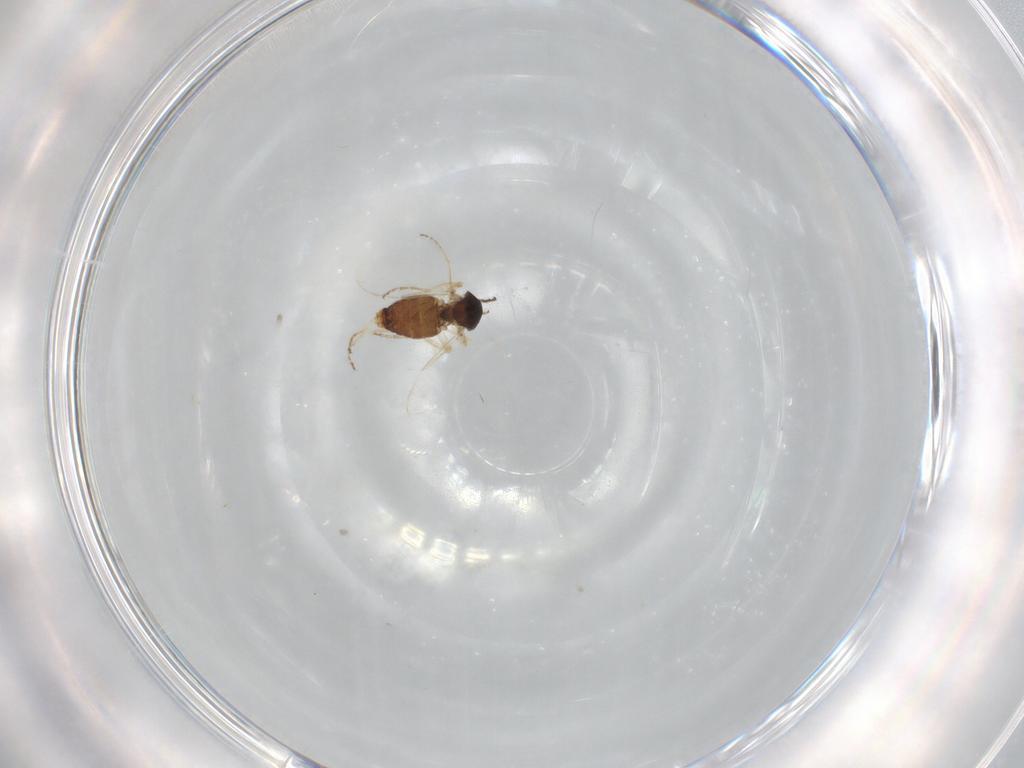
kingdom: Animalia
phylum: Arthropoda
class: Insecta
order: Diptera
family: Ceratopogonidae
